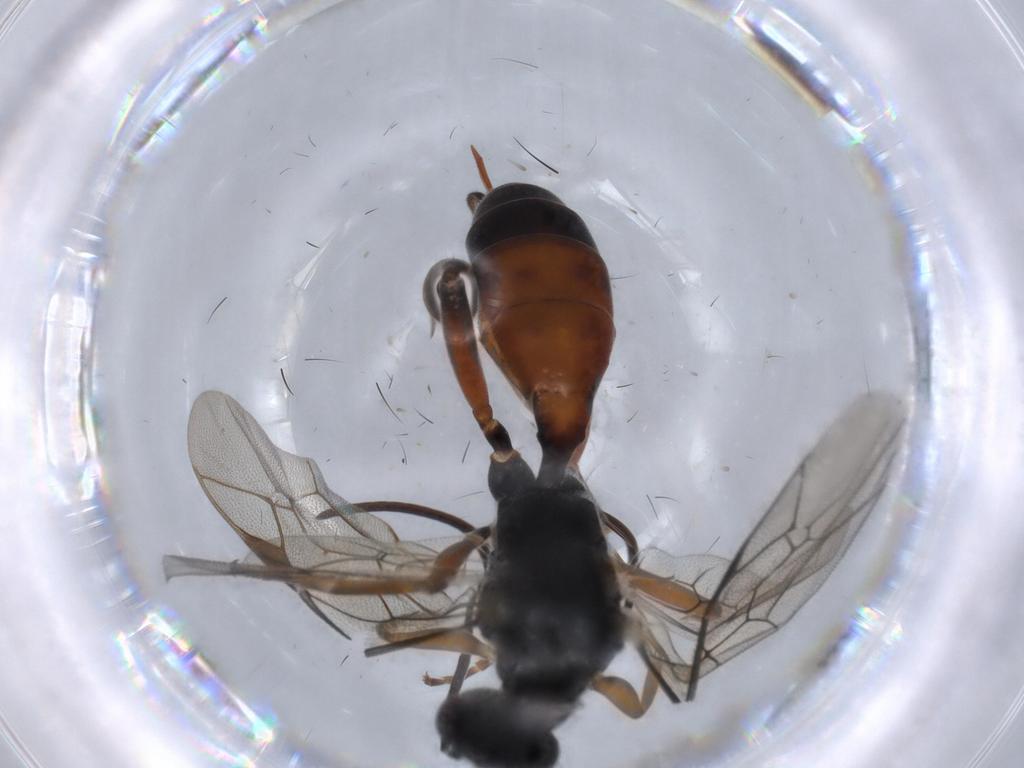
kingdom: Animalia
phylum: Arthropoda
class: Insecta
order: Hymenoptera
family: Ichneumonidae
